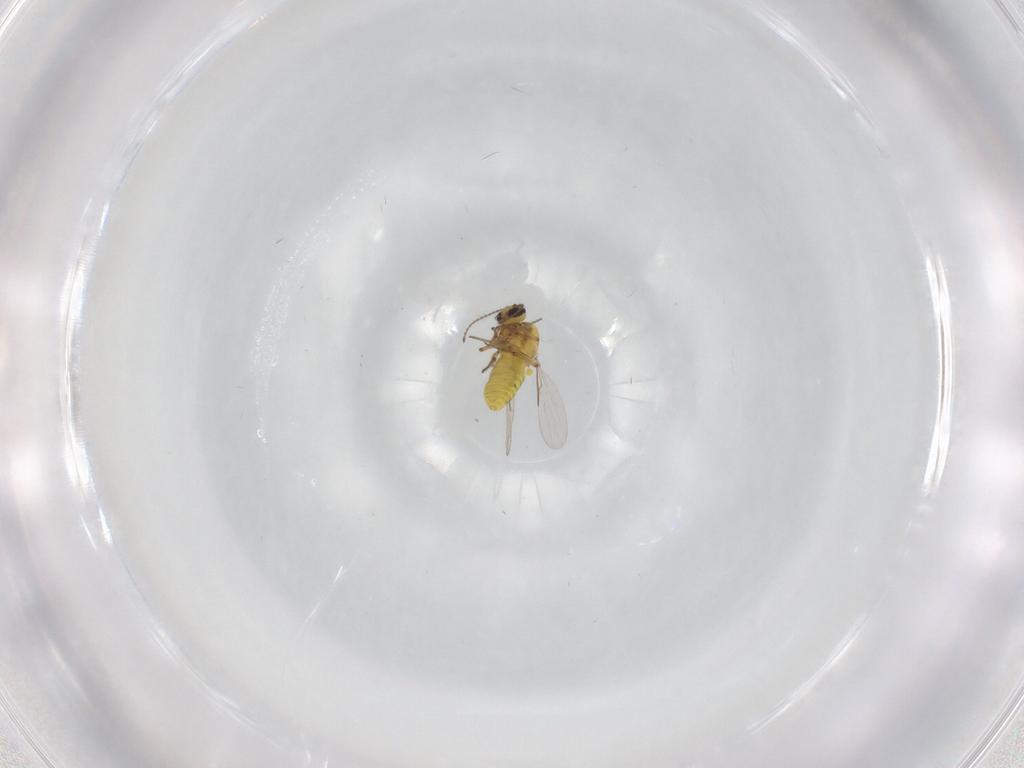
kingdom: Animalia
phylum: Arthropoda
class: Insecta
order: Diptera
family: Ceratopogonidae
